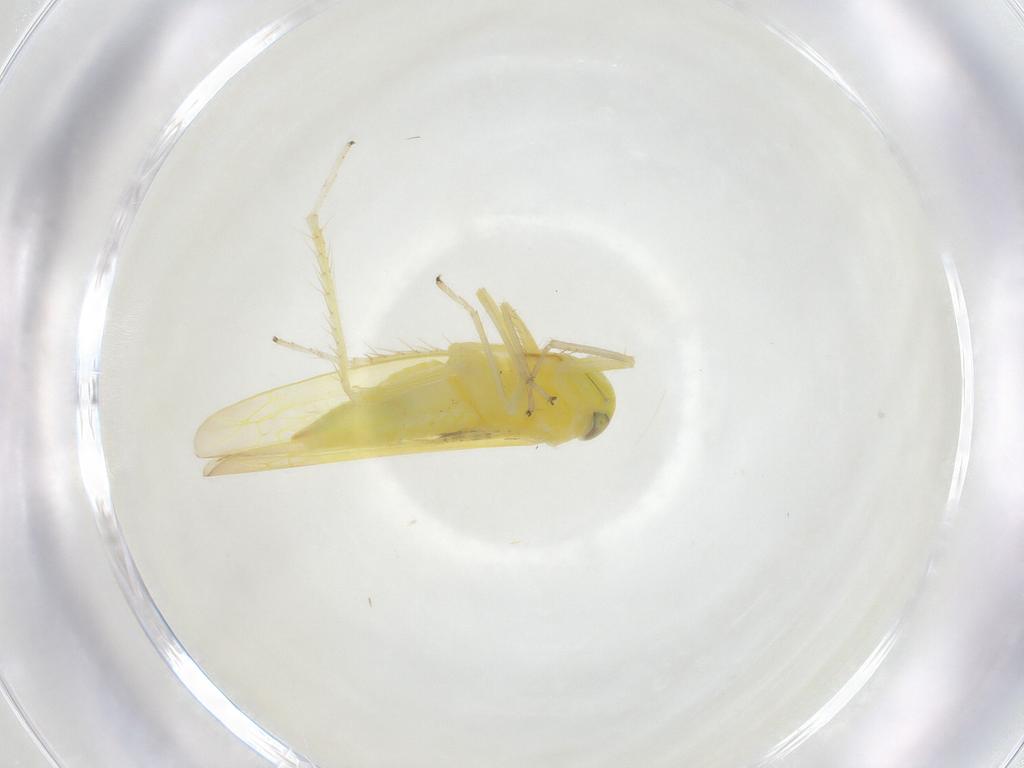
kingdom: Animalia
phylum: Arthropoda
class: Insecta
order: Hemiptera
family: Cicadellidae
